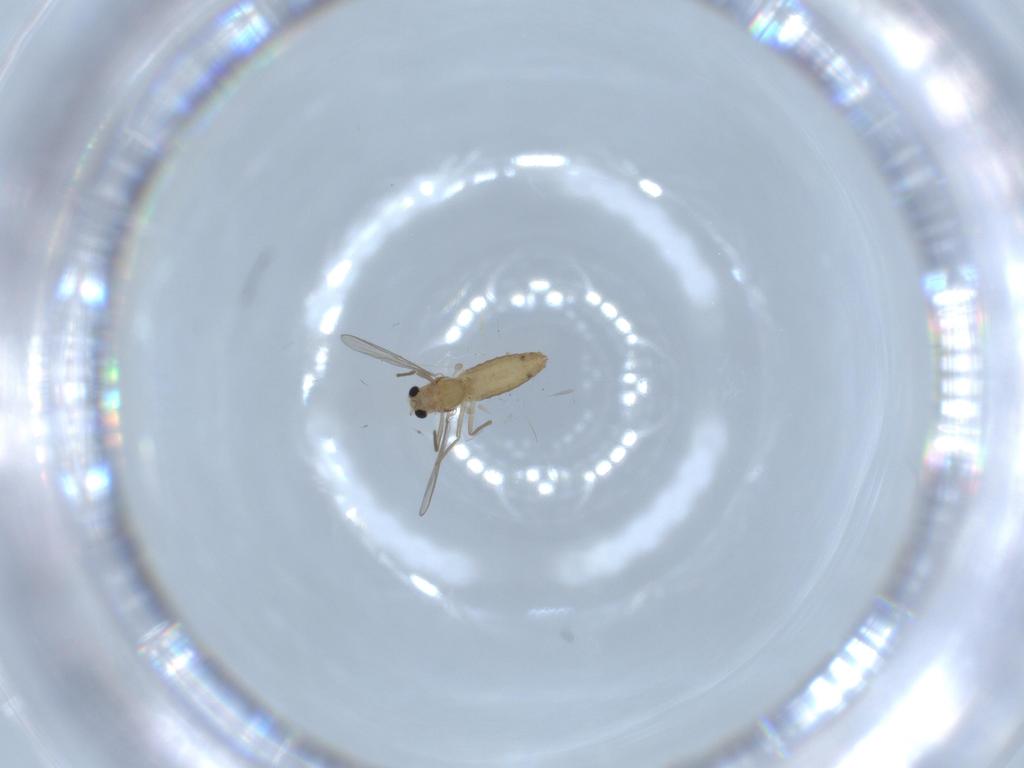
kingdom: Animalia
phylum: Arthropoda
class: Insecta
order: Diptera
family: Chironomidae
